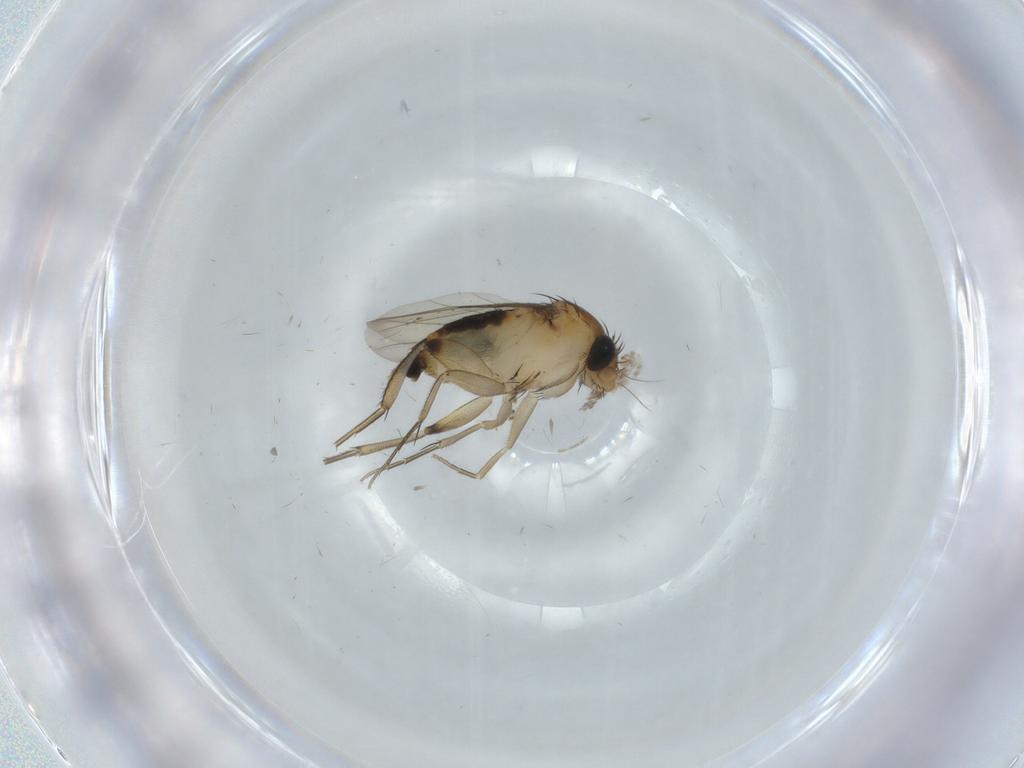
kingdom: Animalia
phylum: Arthropoda
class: Insecta
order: Diptera
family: Phoridae
